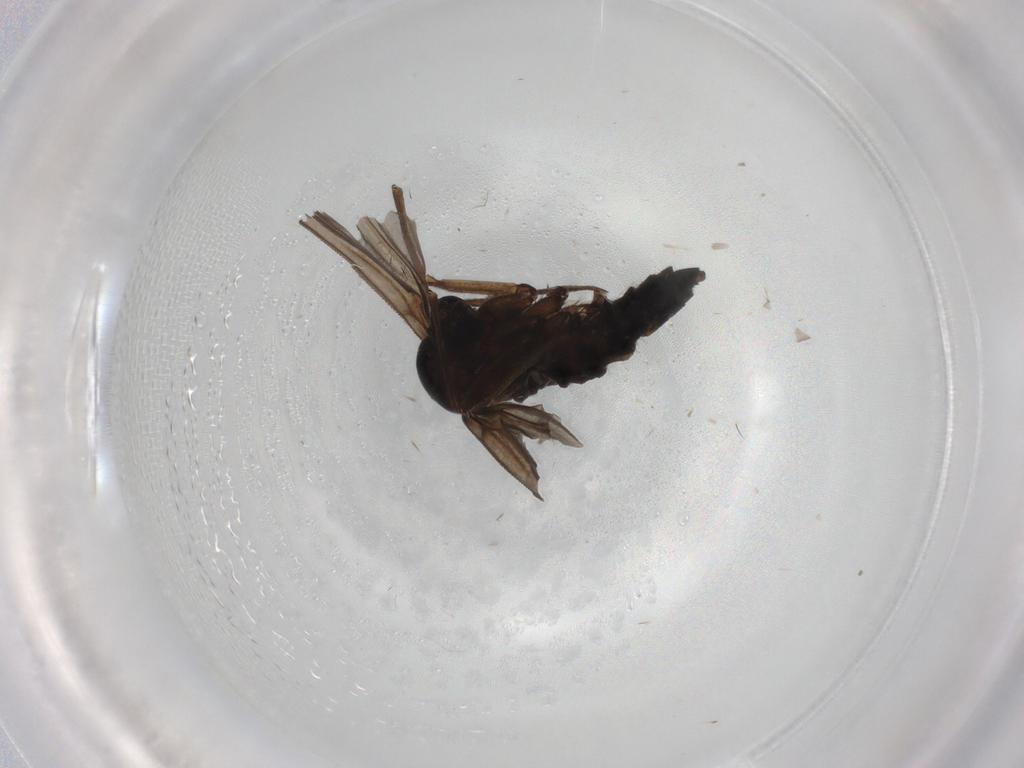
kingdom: Animalia
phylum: Arthropoda
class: Insecta
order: Diptera
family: Sciaridae
